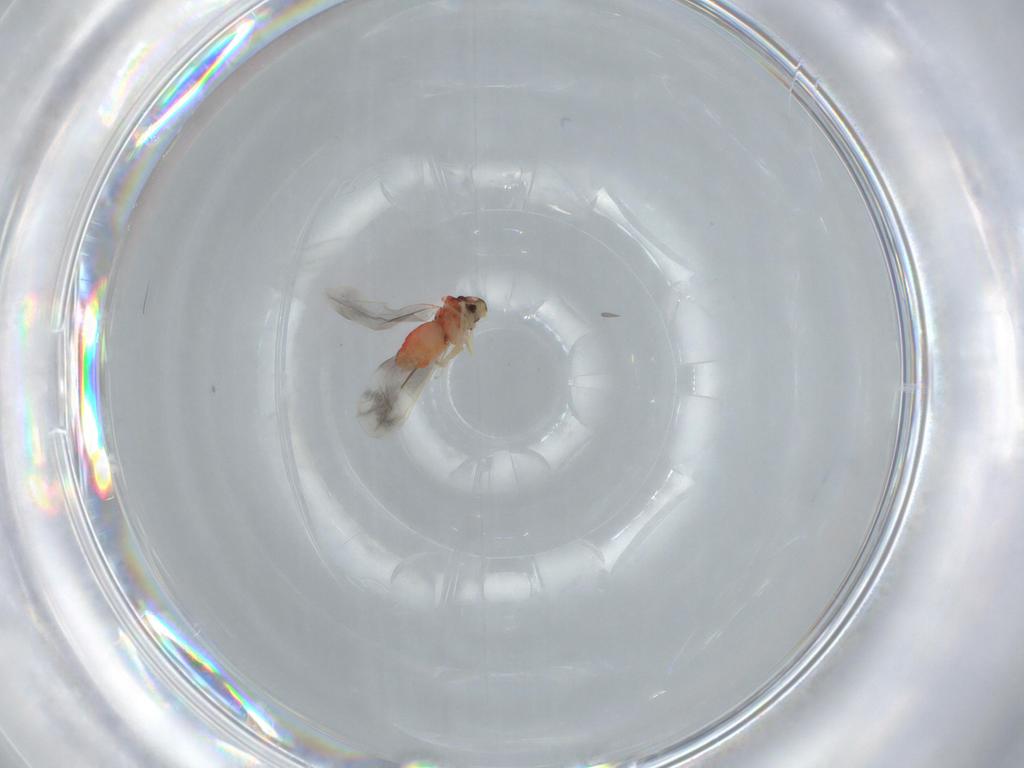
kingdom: Animalia
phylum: Arthropoda
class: Insecta
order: Hemiptera
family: Aleyrodidae
